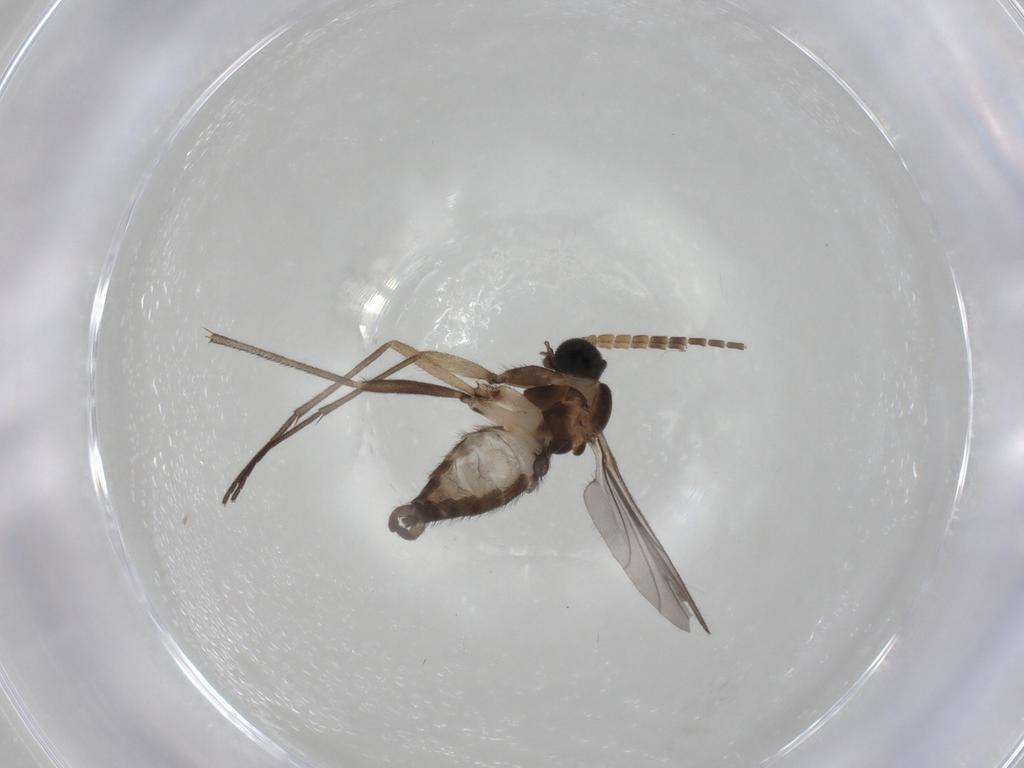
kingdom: Animalia
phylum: Arthropoda
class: Insecta
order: Diptera
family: Sciaridae
